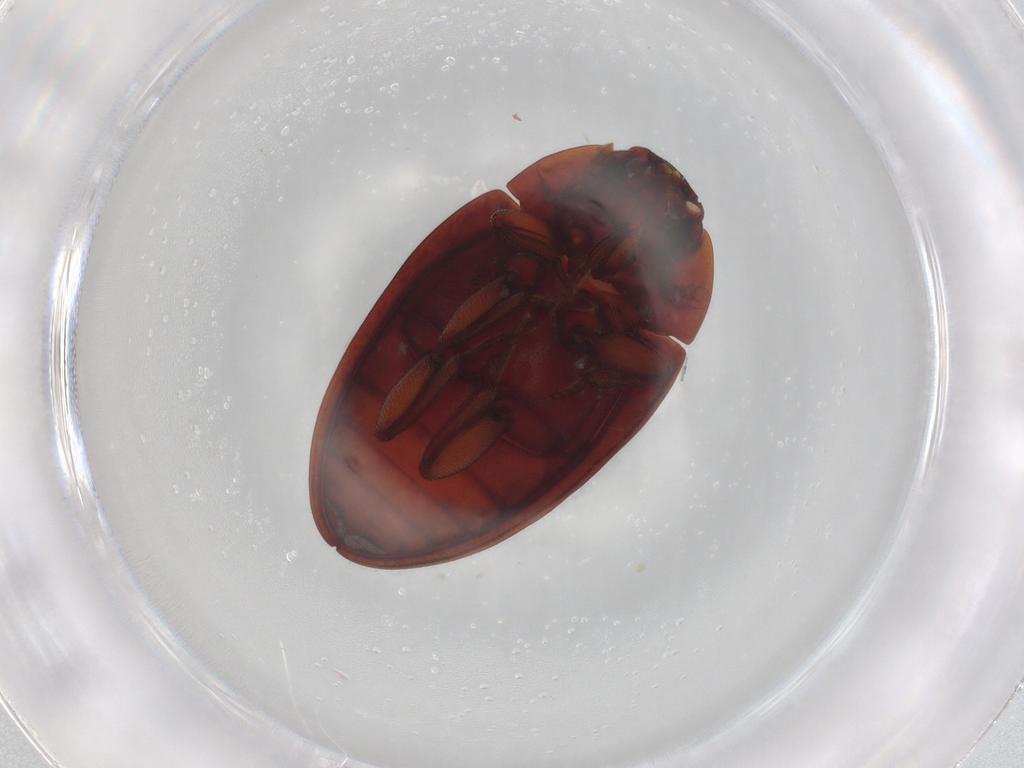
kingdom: Animalia
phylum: Arthropoda
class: Insecta
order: Coleoptera
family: Zopheridae
